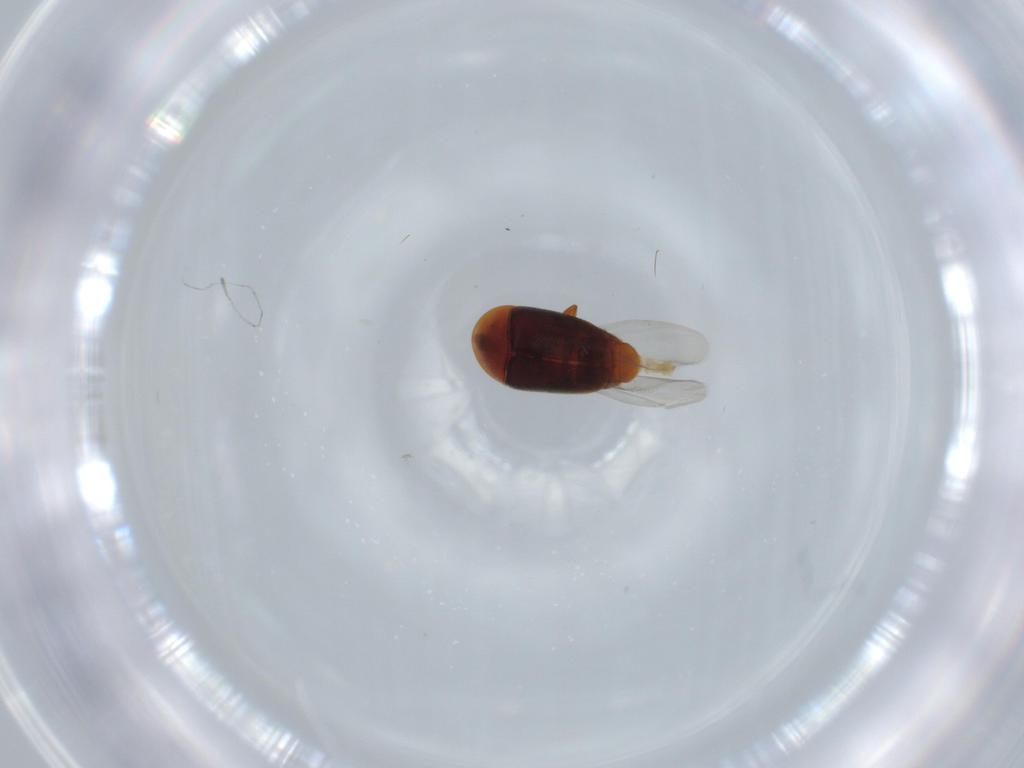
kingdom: Animalia
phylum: Arthropoda
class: Insecta
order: Coleoptera
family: Corylophidae
